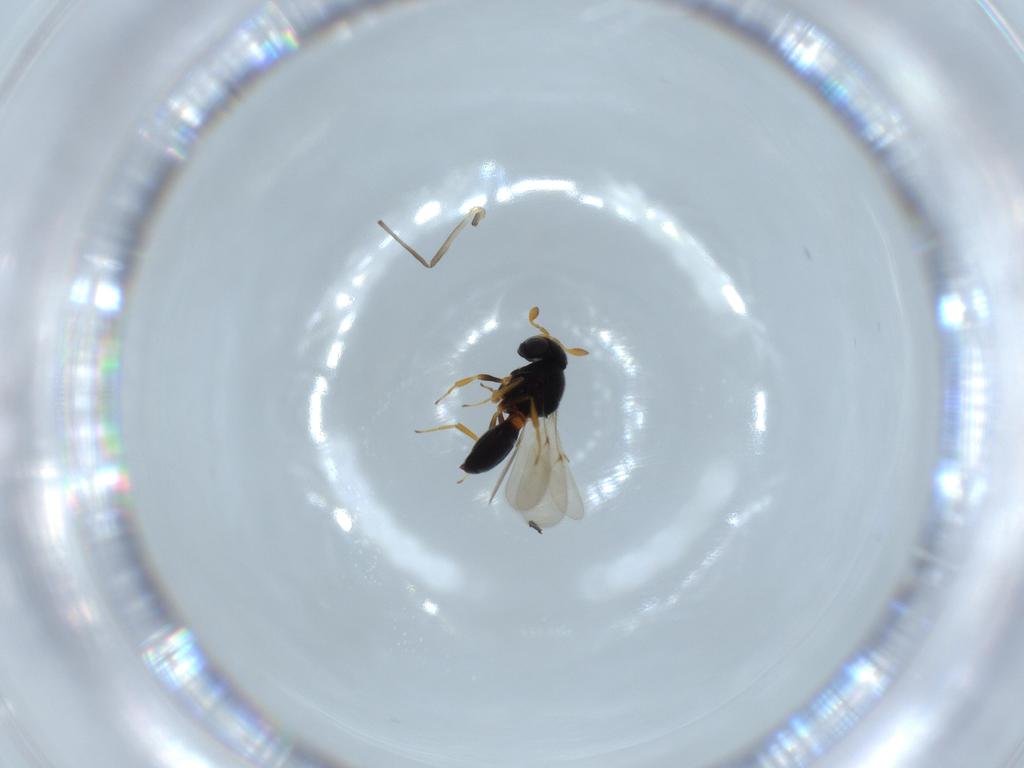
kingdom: Animalia
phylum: Arthropoda
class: Insecta
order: Hymenoptera
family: Scelionidae
